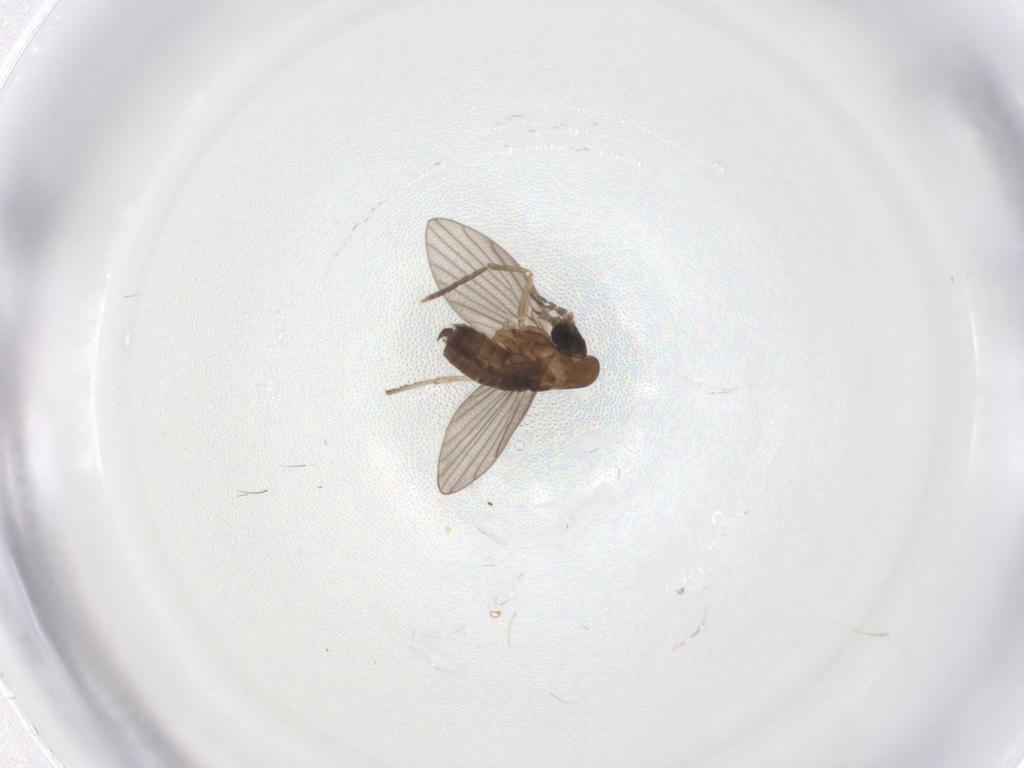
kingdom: Animalia
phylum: Arthropoda
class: Insecta
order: Diptera
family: Psychodidae
